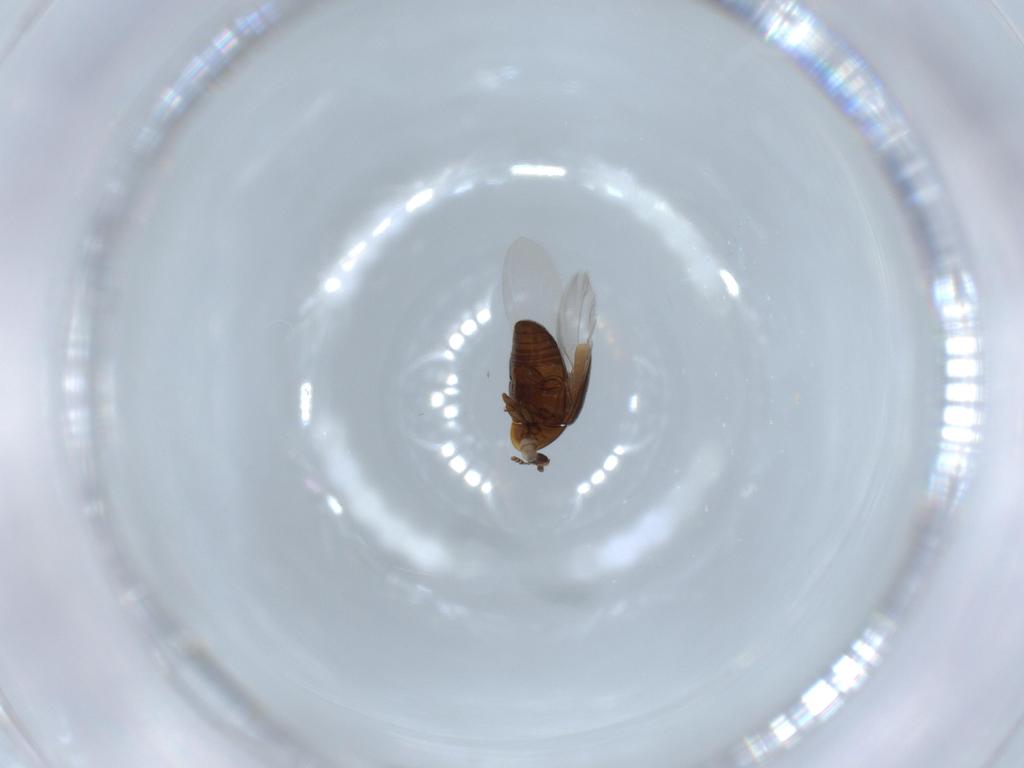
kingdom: Animalia
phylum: Arthropoda
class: Insecta
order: Coleoptera
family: Corylophidae
